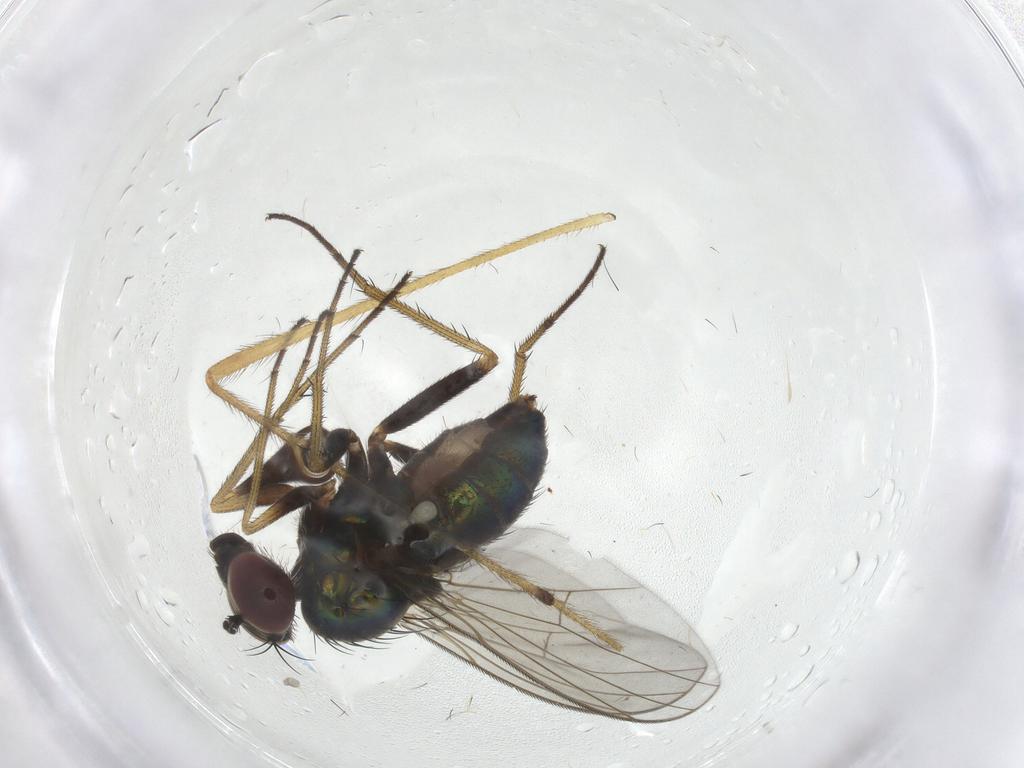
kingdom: Animalia
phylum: Arthropoda
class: Insecta
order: Diptera
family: Dolichopodidae
